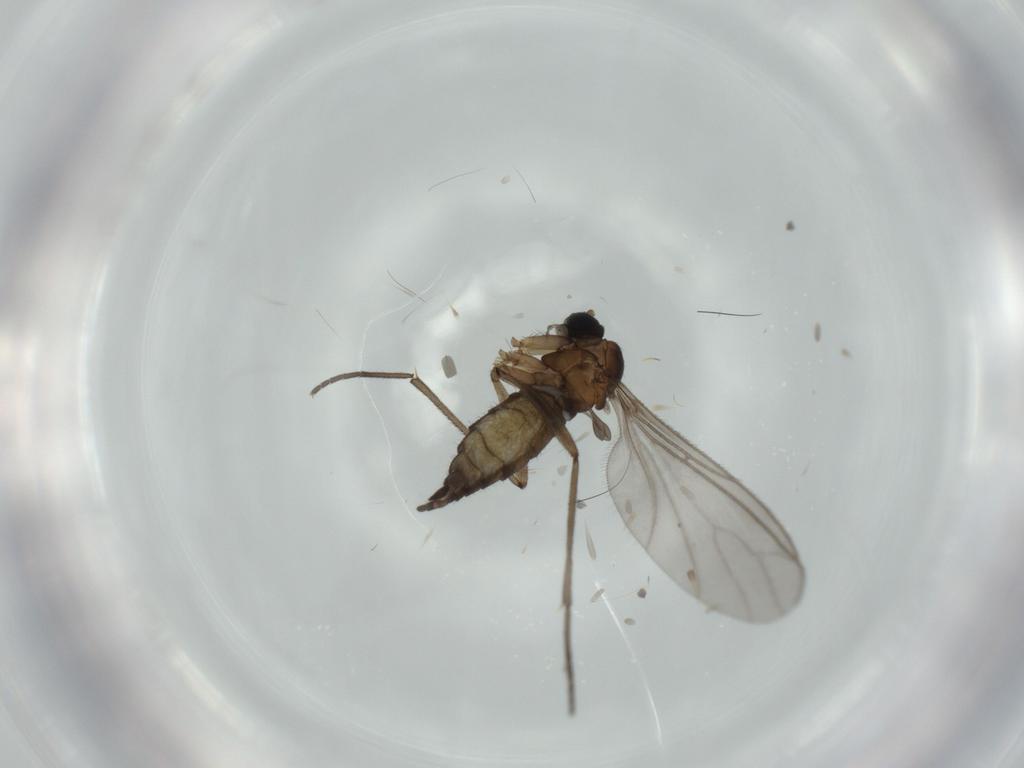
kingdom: Animalia
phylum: Arthropoda
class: Insecta
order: Diptera
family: Sciaridae
